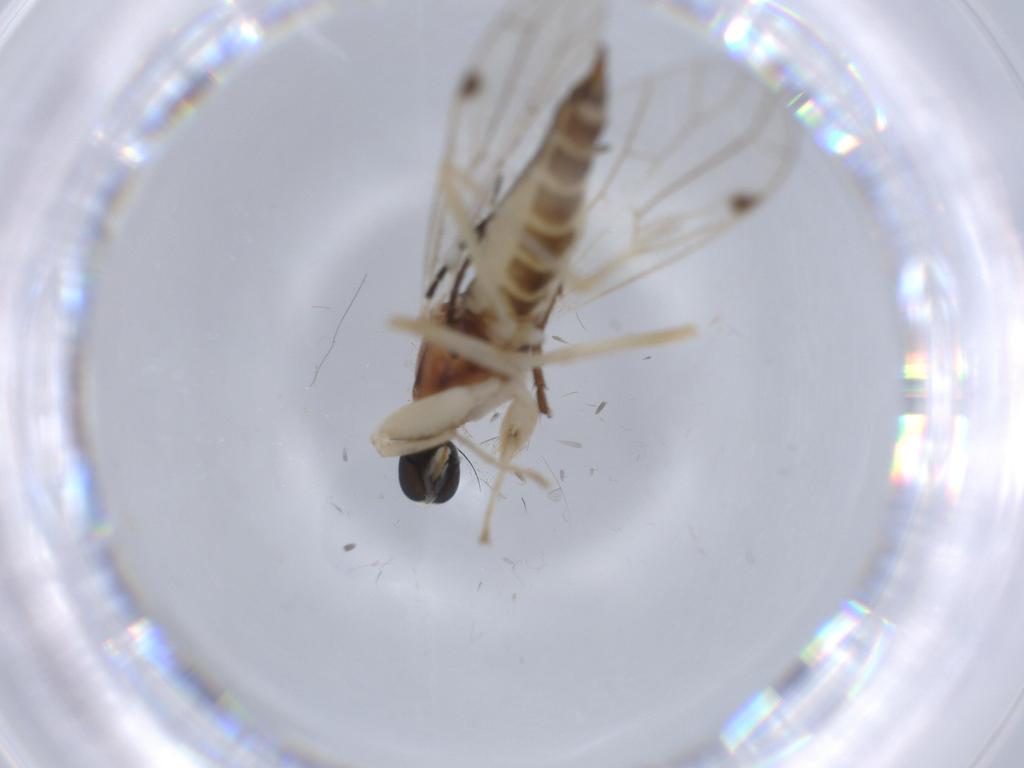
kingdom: Animalia
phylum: Arthropoda
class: Insecta
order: Diptera
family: Empididae
